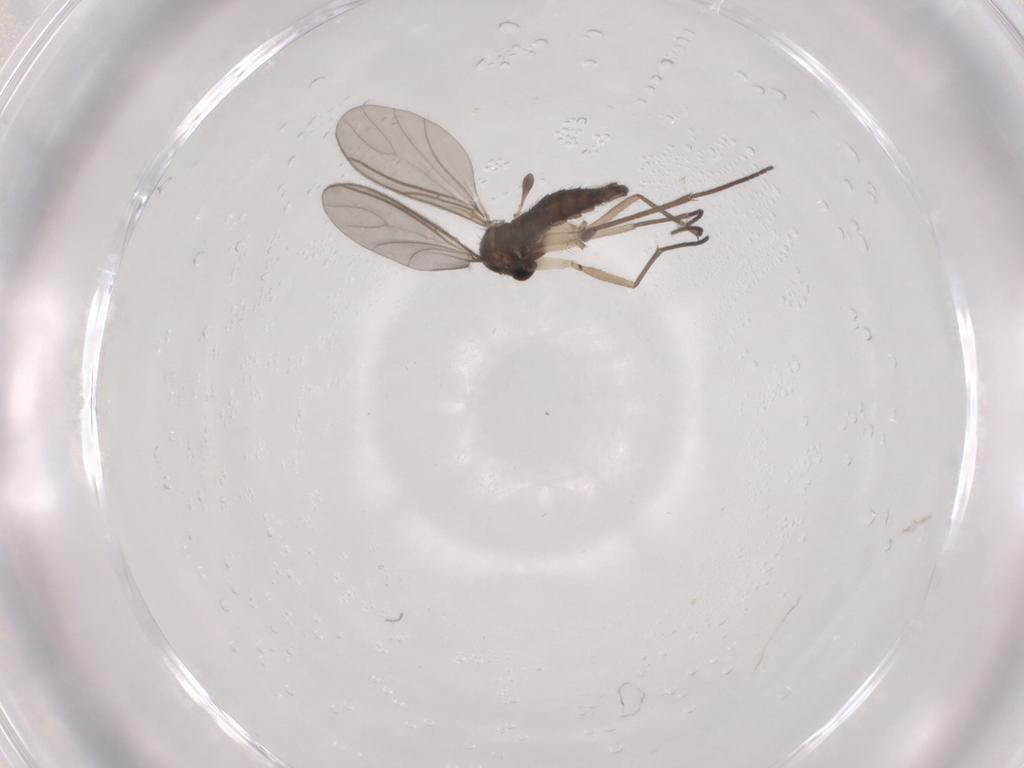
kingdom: Animalia
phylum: Arthropoda
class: Insecta
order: Diptera
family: Sciaridae
